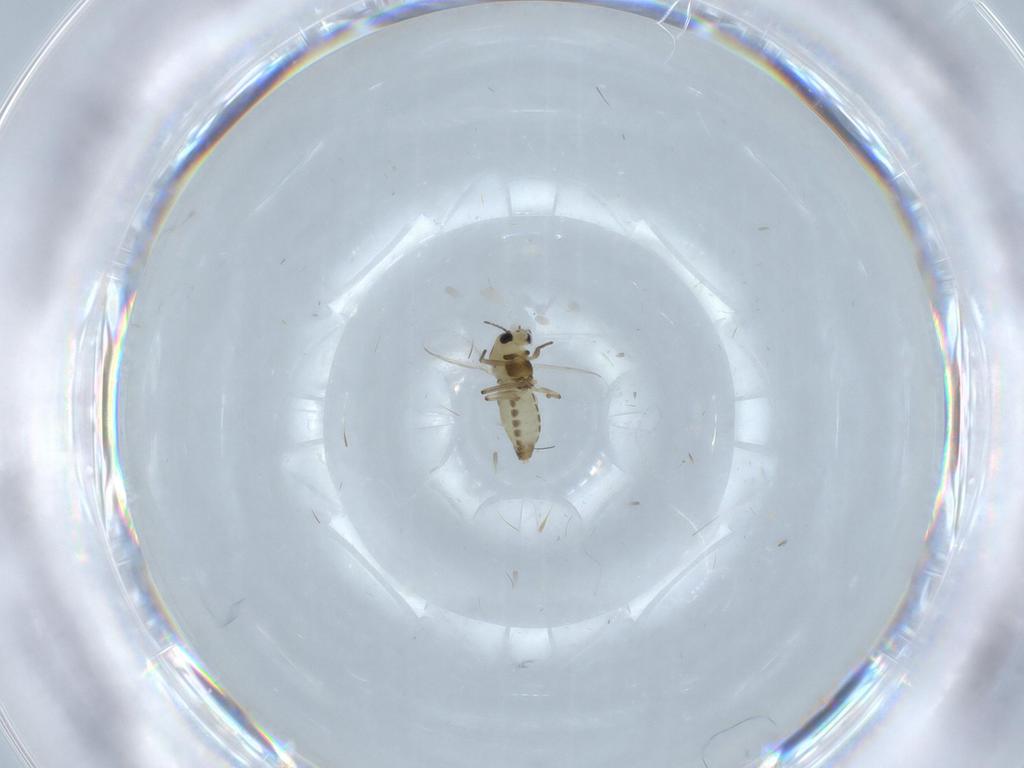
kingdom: Animalia
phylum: Arthropoda
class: Insecta
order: Diptera
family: Chironomidae
